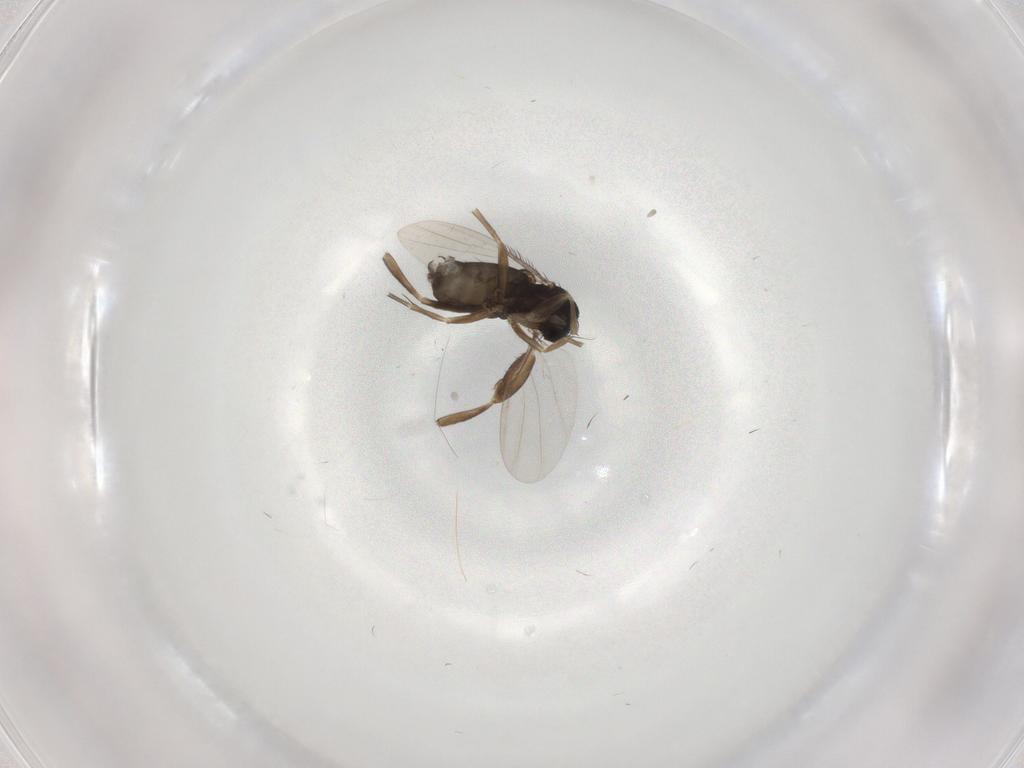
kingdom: Animalia
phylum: Arthropoda
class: Insecta
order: Diptera
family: Phoridae
